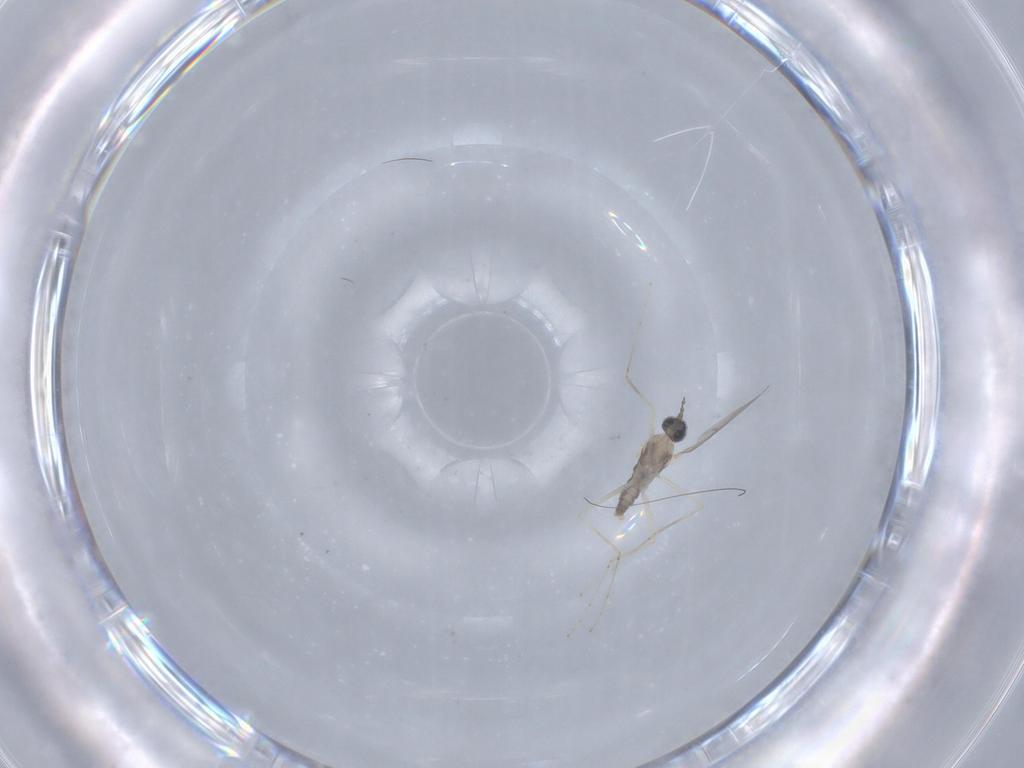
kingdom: Animalia
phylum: Arthropoda
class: Insecta
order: Diptera
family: Cecidomyiidae
